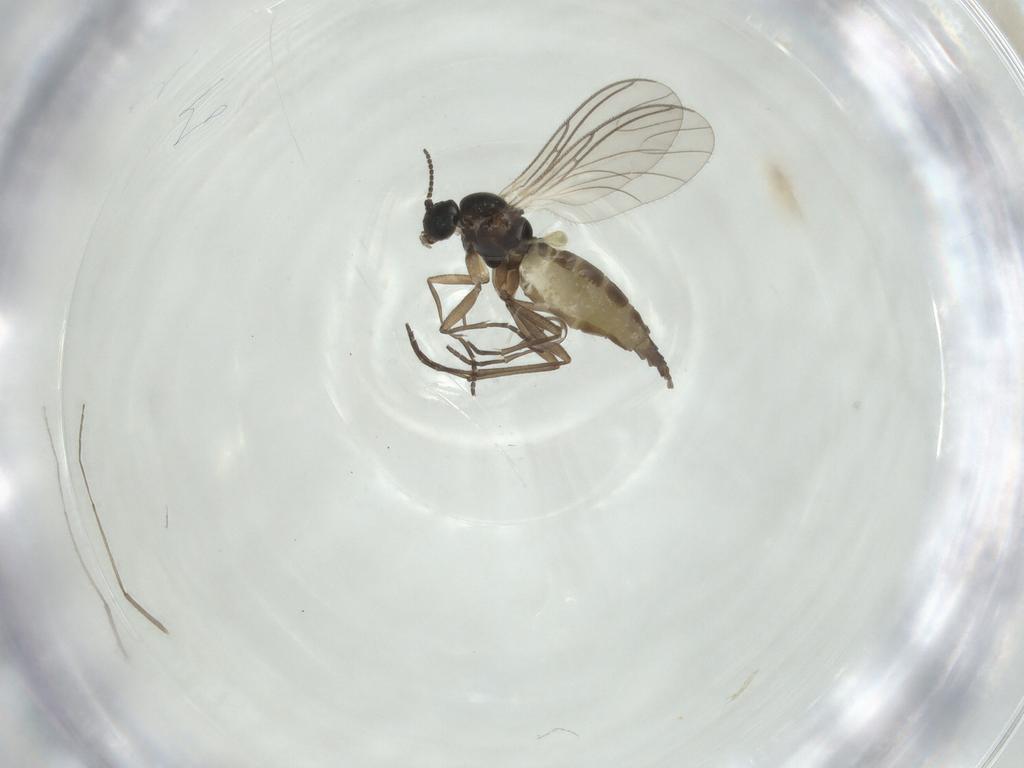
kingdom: Animalia
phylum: Arthropoda
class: Insecta
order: Diptera
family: Sciaridae
